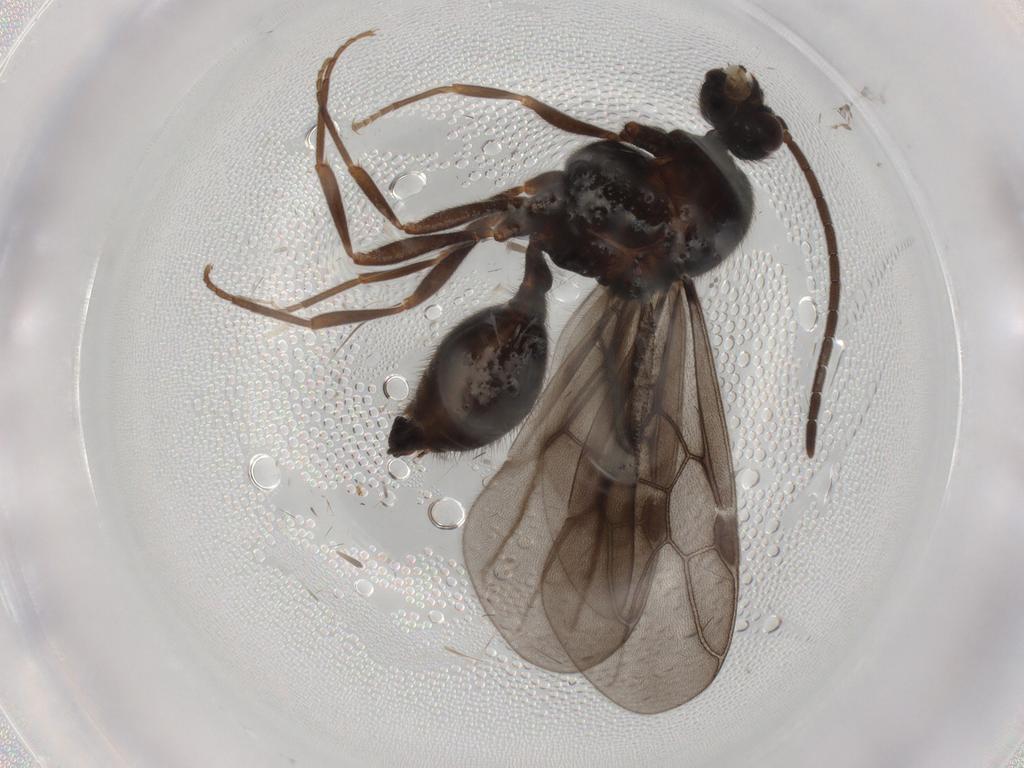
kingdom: Animalia
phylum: Arthropoda
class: Insecta
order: Hymenoptera
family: Formicidae
